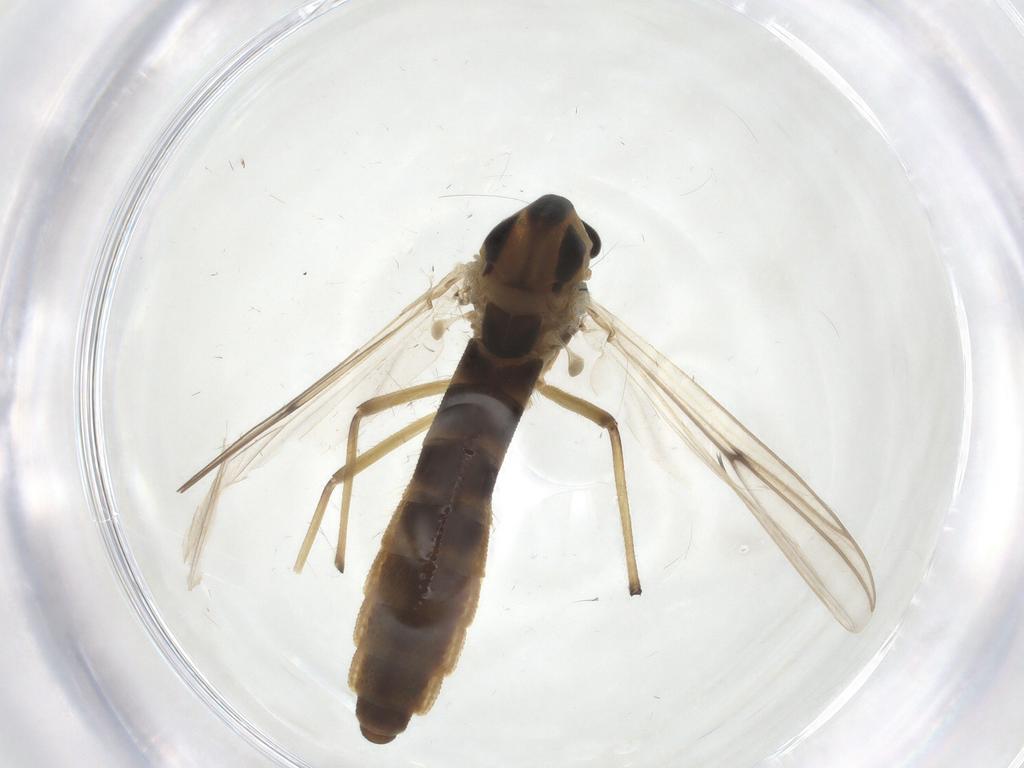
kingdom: Animalia
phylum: Arthropoda
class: Insecta
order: Diptera
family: Chironomidae
